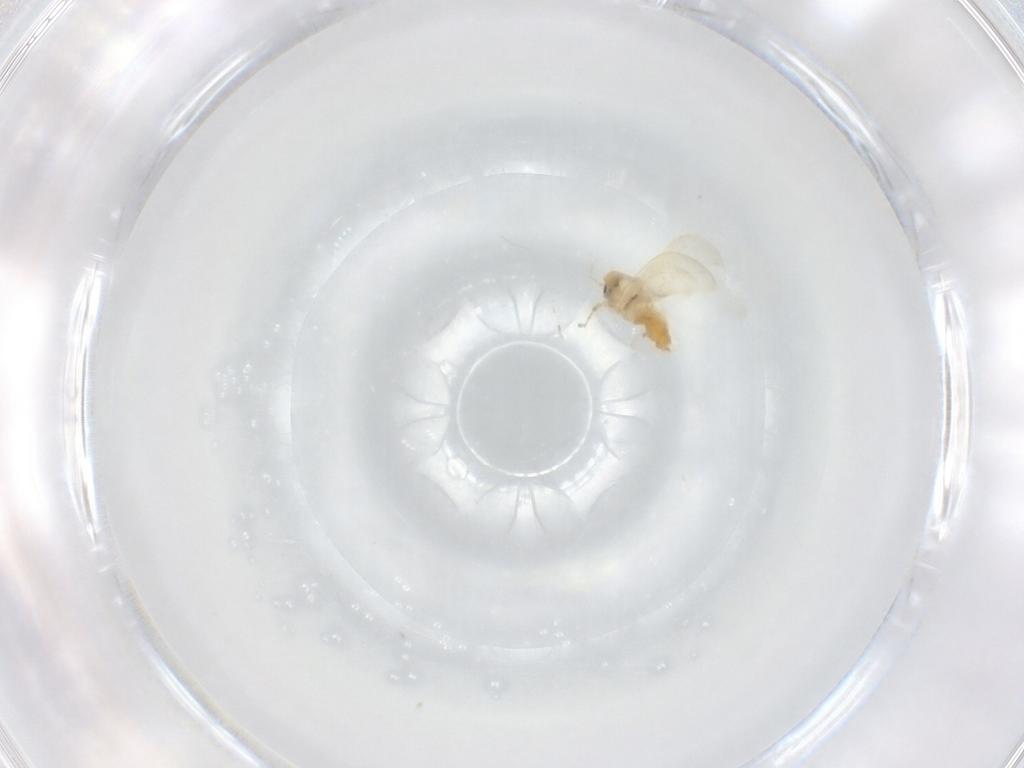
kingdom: Animalia
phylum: Arthropoda
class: Insecta
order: Hemiptera
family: Aleyrodidae
